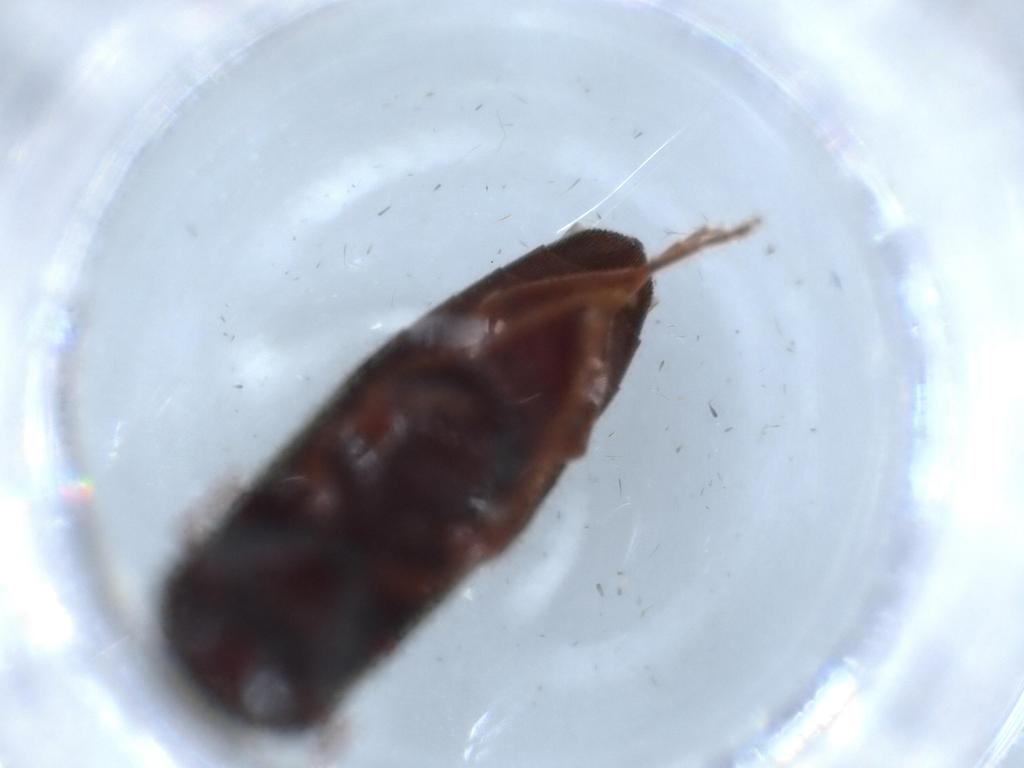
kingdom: Animalia
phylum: Arthropoda
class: Insecta
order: Coleoptera
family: Eucnemidae
